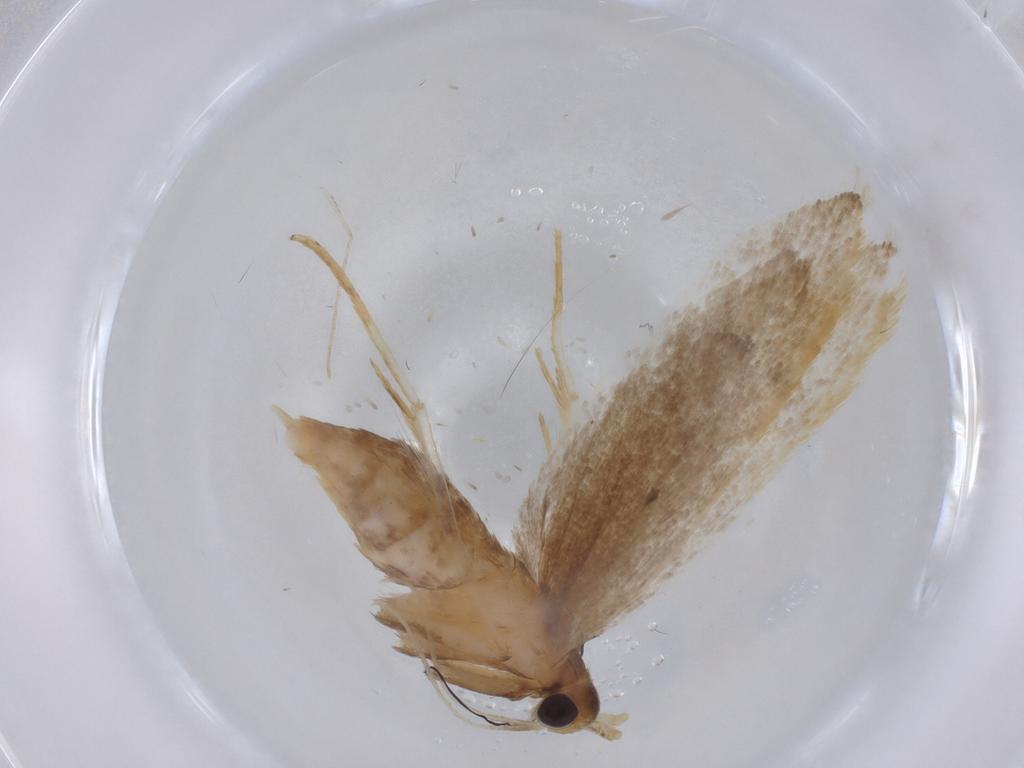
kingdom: Animalia
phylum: Arthropoda
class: Insecta
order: Lepidoptera
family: Lecithoceridae
